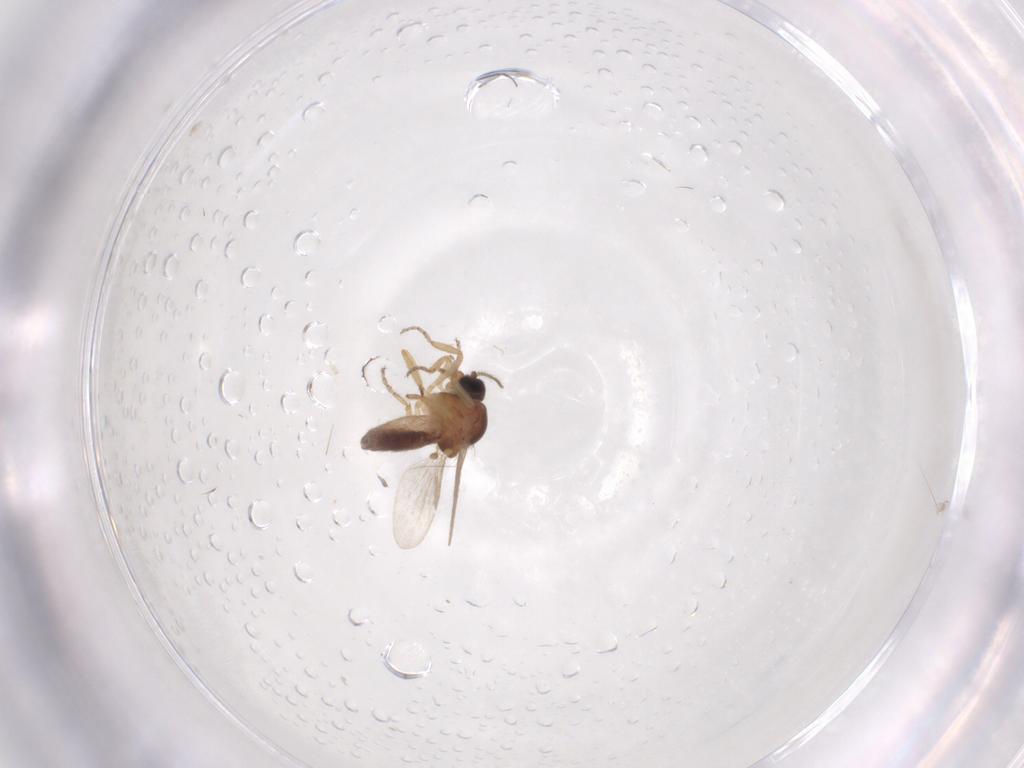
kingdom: Animalia
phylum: Arthropoda
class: Insecta
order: Diptera
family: Ceratopogonidae
